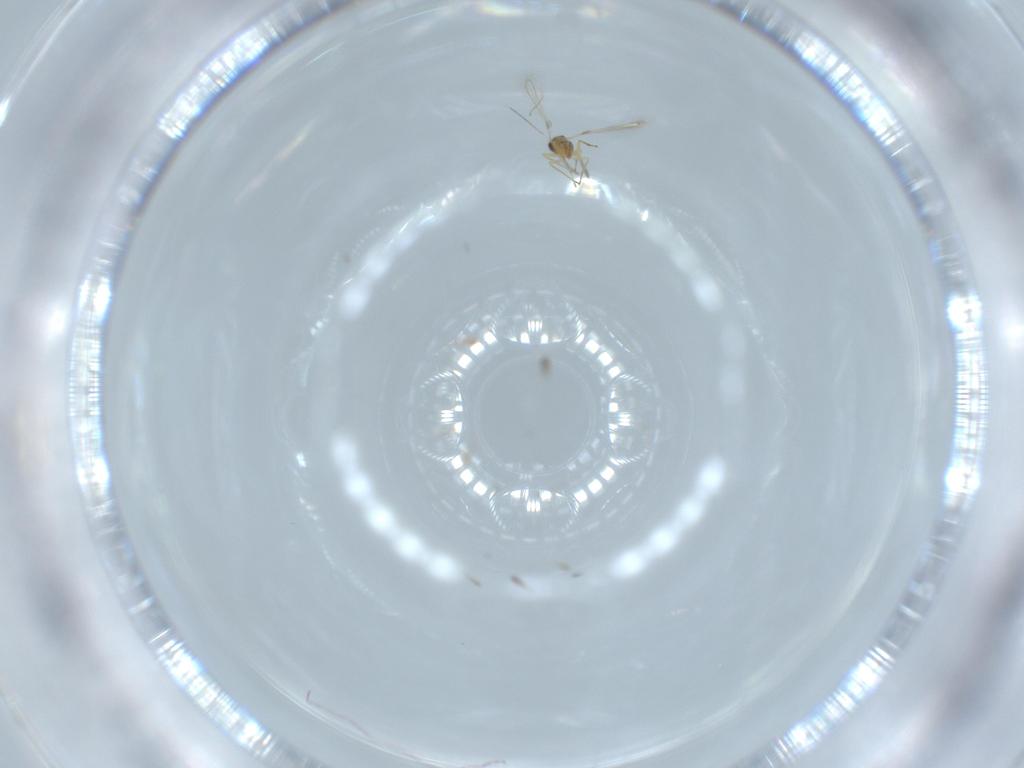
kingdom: Animalia
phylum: Arthropoda
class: Insecta
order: Hymenoptera
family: Mymaridae
